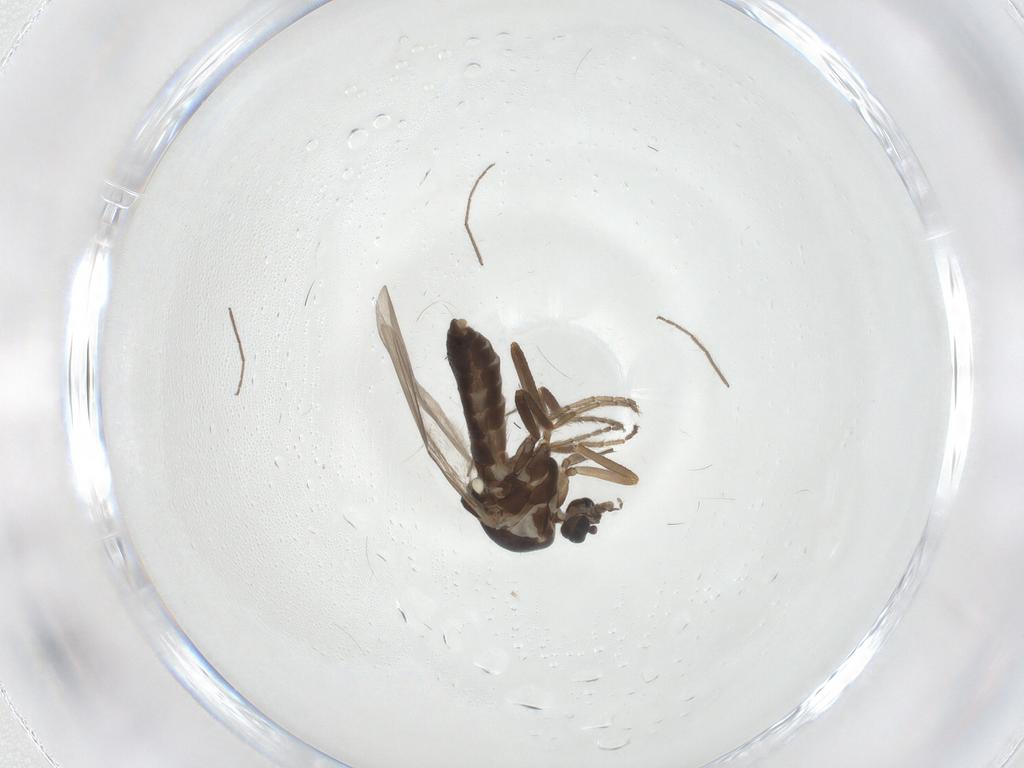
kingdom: Animalia
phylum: Arthropoda
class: Insecta
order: Diptera
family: Ceratopogonidae
